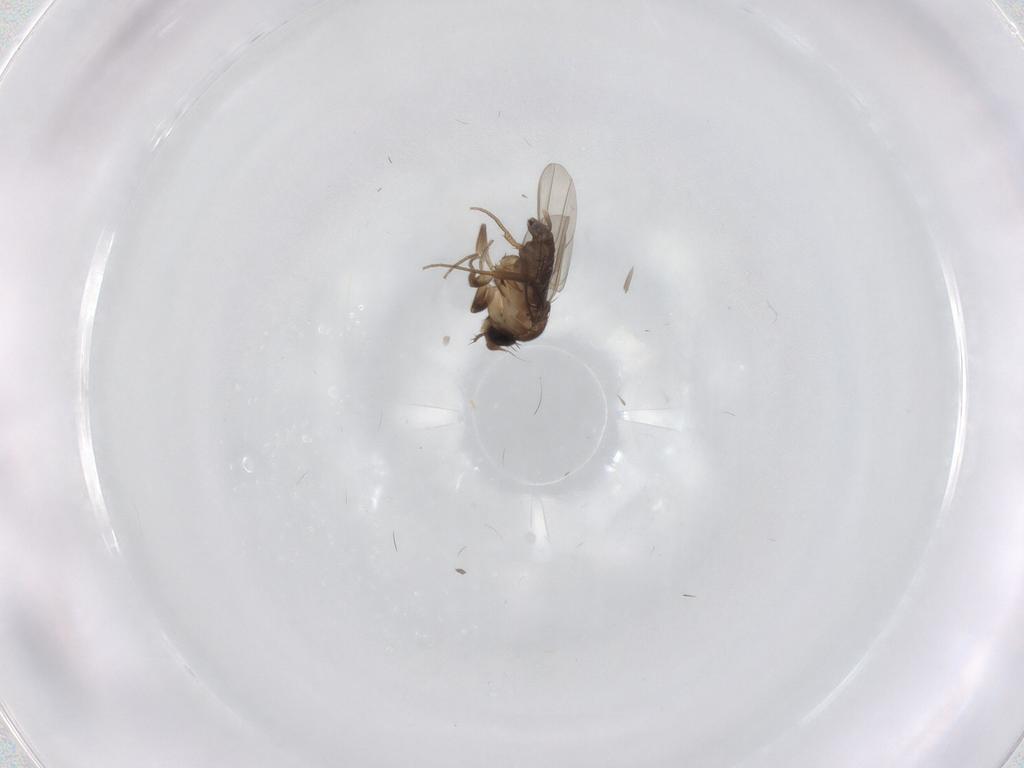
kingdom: Animalia
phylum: Arthropoda
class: Insecta
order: Diptera
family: Phoridae
